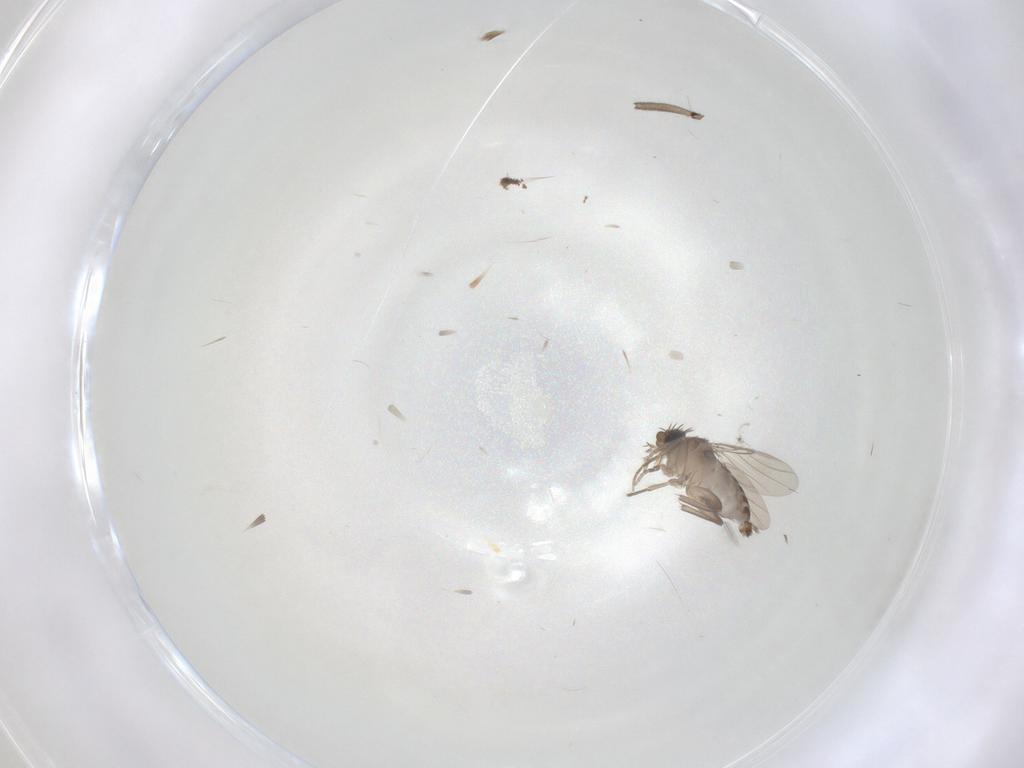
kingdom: Animalia
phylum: Arthropoda
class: Insecta
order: Diptera
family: Phoridae
